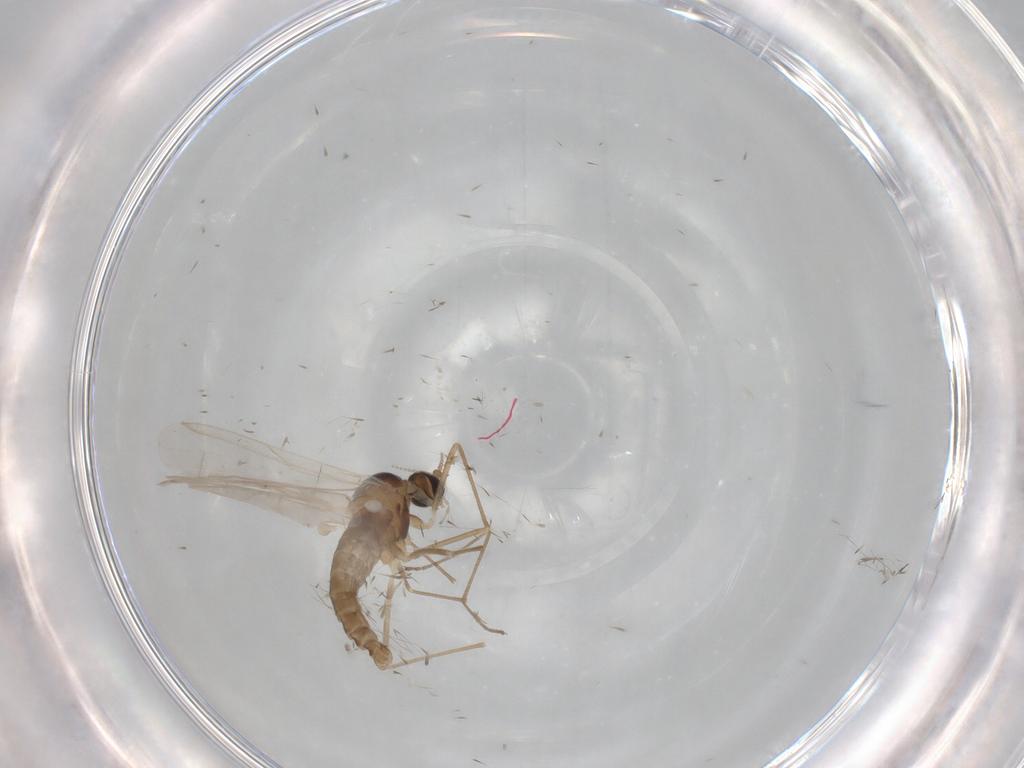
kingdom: Animalia
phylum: Arthropoda
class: Insecta
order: Diptera
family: Cecidomyiidae
